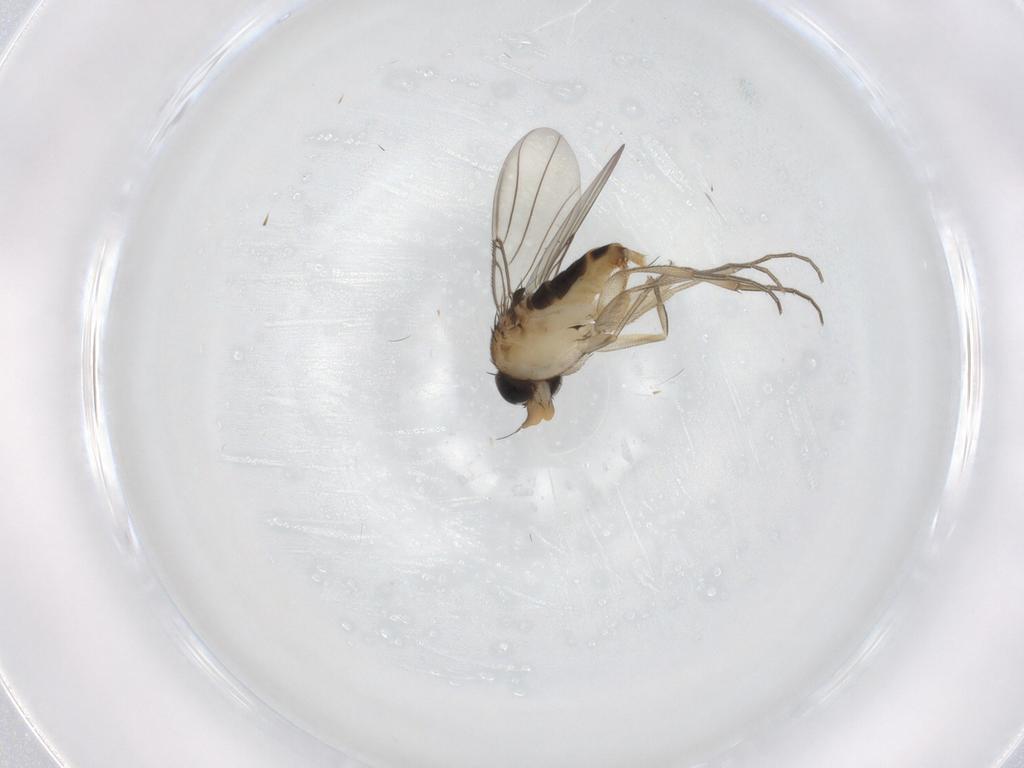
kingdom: Animalia
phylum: Arthropoda
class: Insecta
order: Diptera
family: Phoridae
